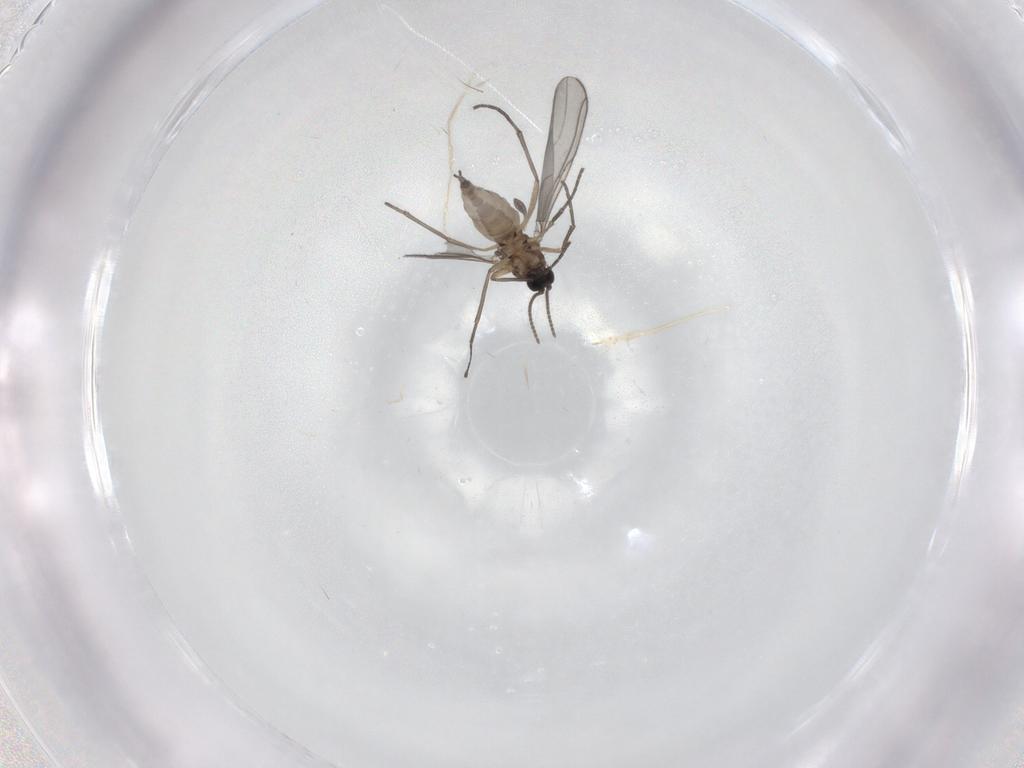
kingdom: Animalia
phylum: Arthropoda
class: Insecta
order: Diptera
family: Sciaridae
